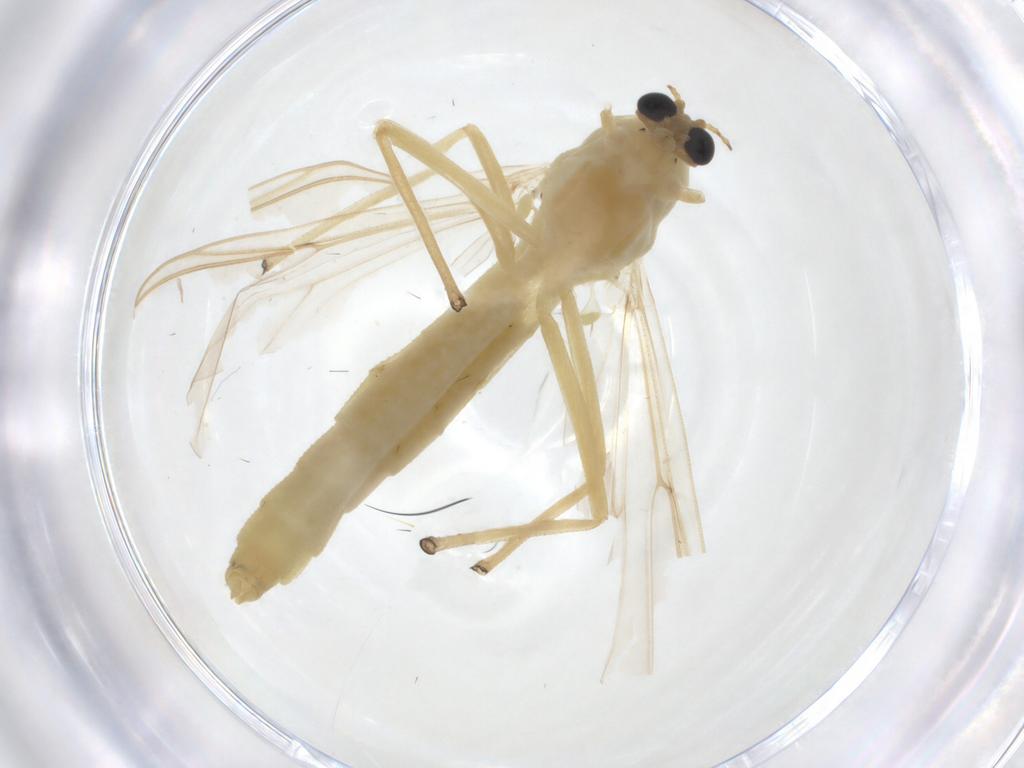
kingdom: Animalia
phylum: Arthropoda
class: Insecta
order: Diptera
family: Chironomidae
